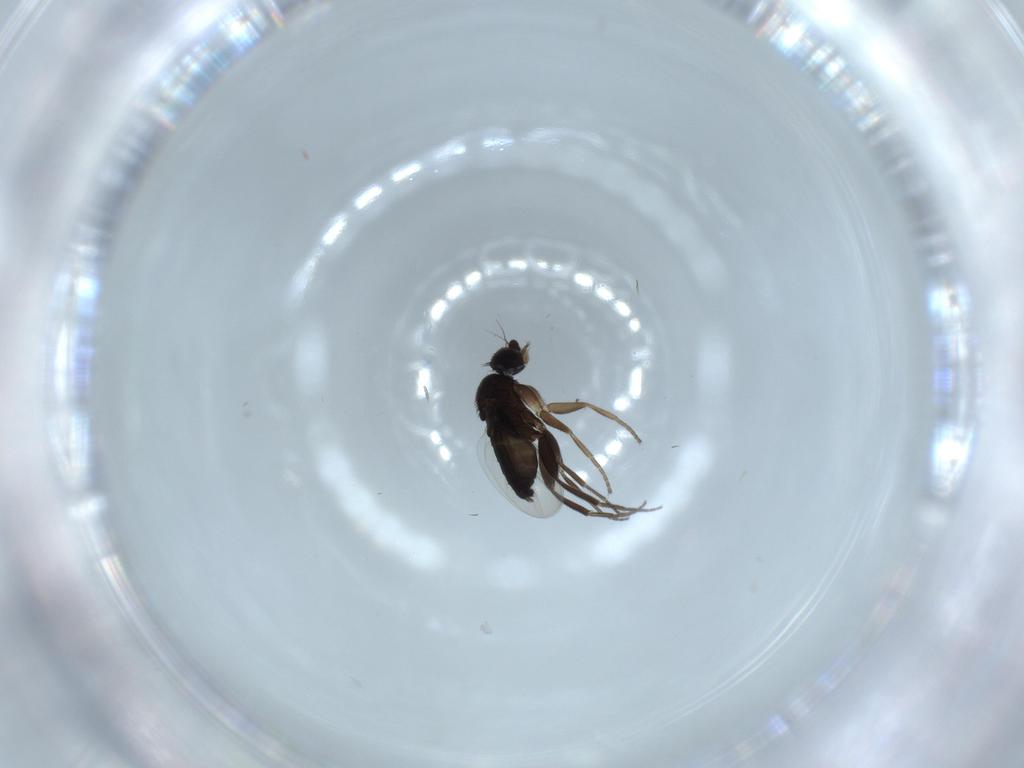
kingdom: Animalia
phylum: Arthropoda
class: Insecta
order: Diptera
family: Phoridae
